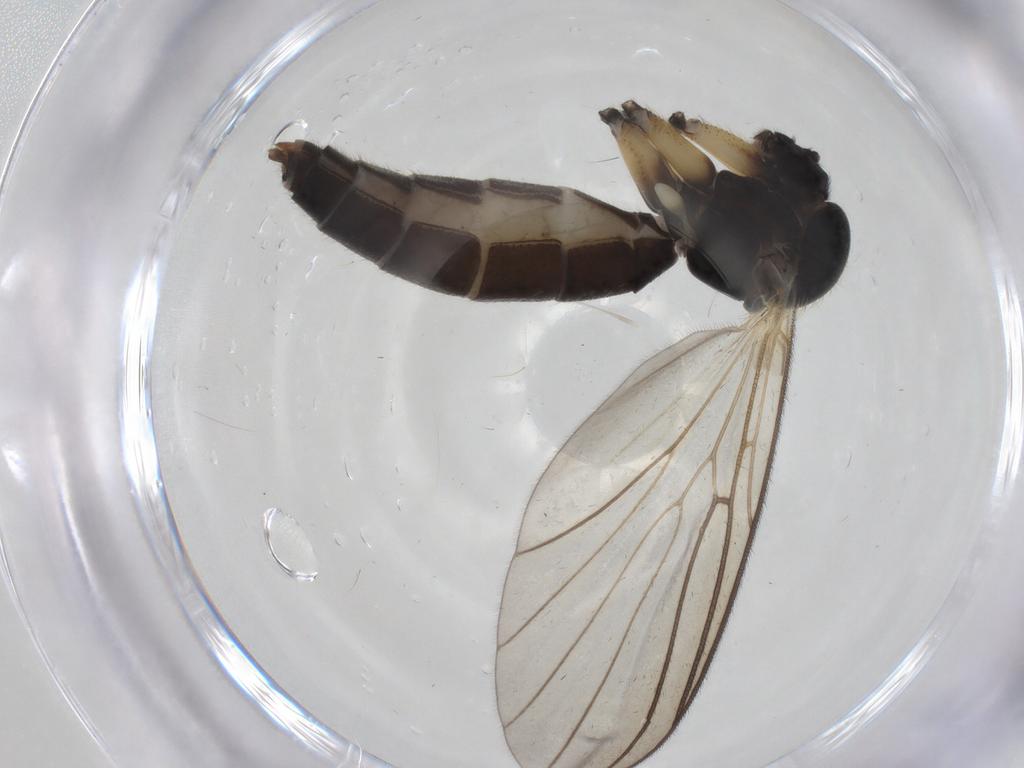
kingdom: Animalia
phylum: Arthropoda
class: Insecta
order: Diptera
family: Mycetophilidae
